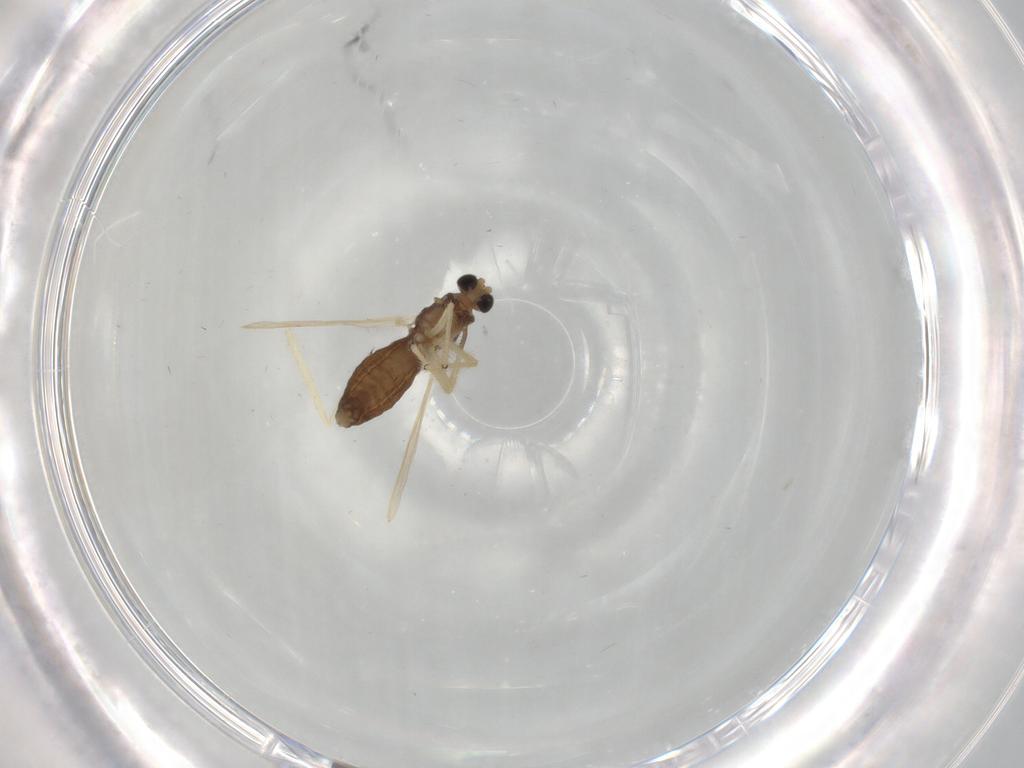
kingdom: Animalia
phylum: Arthropoda
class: Insecta
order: Diptera
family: Chironomidae
